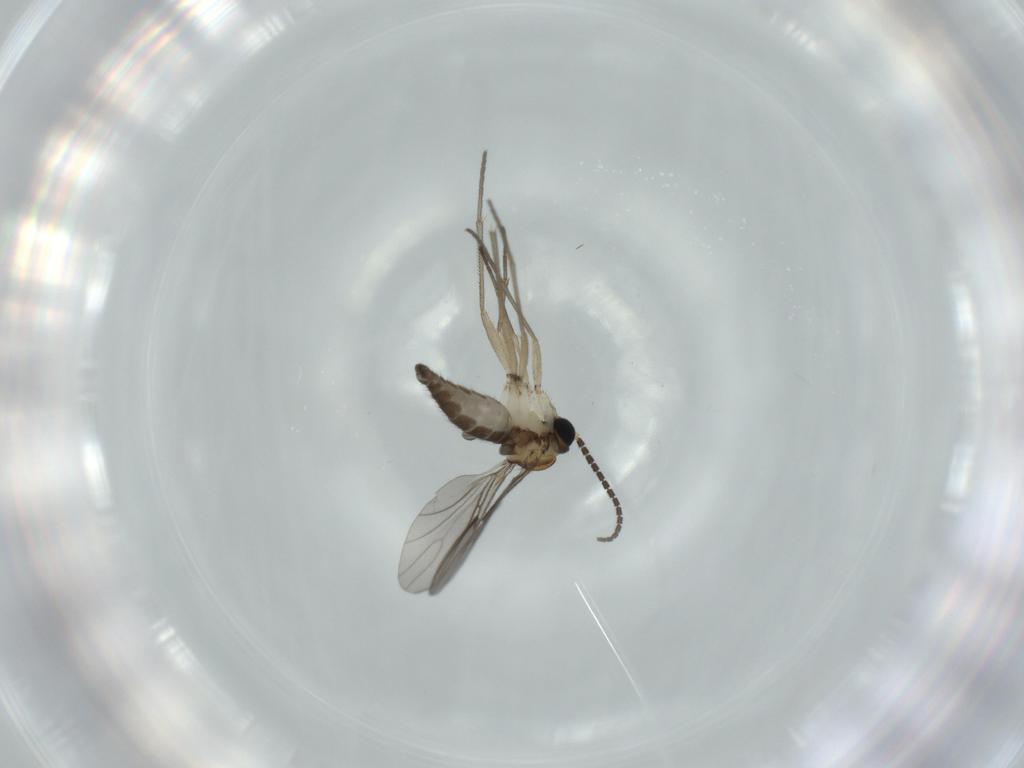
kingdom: Animalia
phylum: Arthropoda
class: Insecta
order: Diptera
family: Sciaridae
